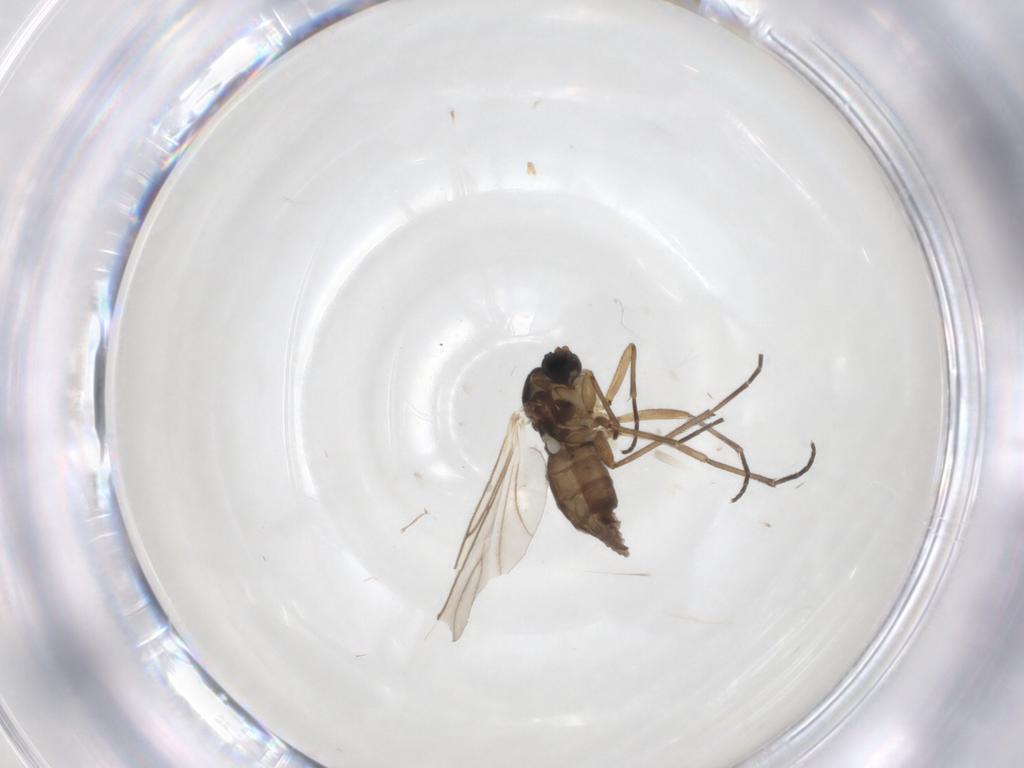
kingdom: Animalia
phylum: Arthropoda
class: Insecta
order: Diptera
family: Sciaridae
